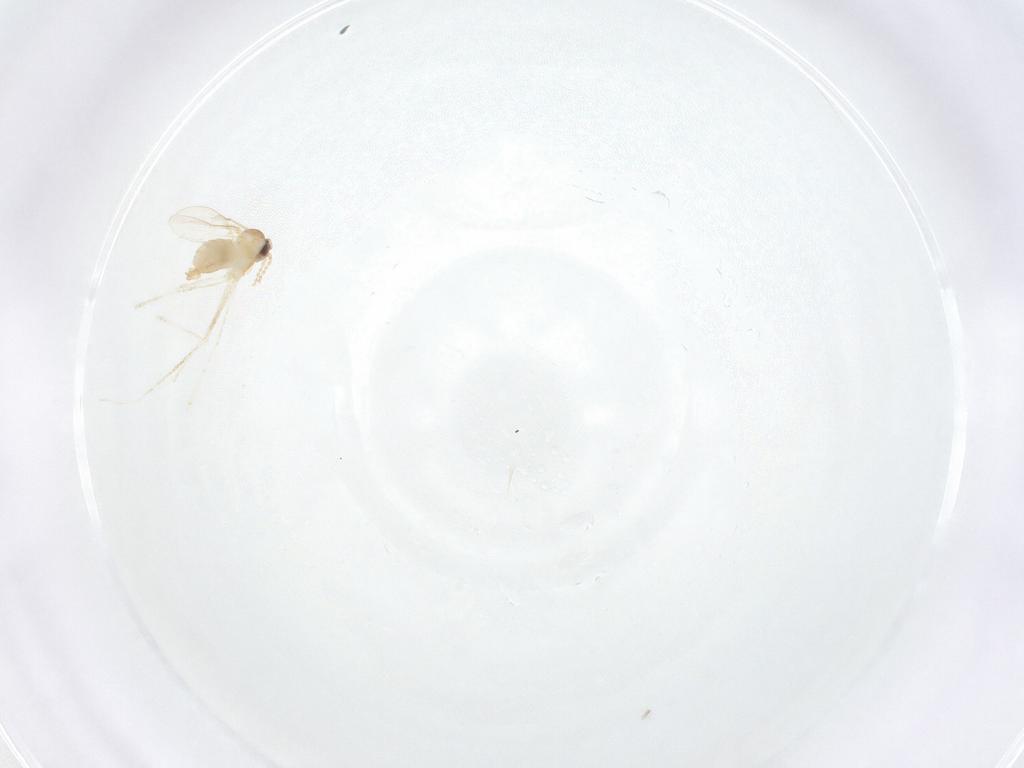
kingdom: Animalia
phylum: Arthropoda
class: Insecta
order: Diptera
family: Cecidomyiidae
